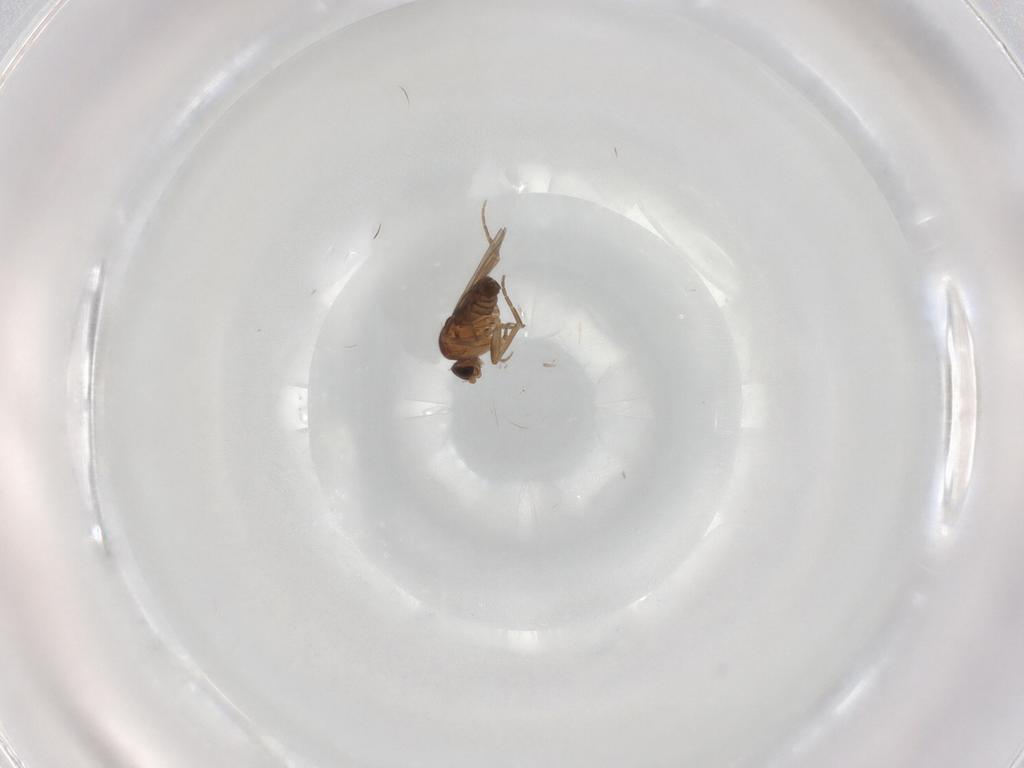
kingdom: Animalia
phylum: Arthropoda
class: Insecta
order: Diptera
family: Phoridae
